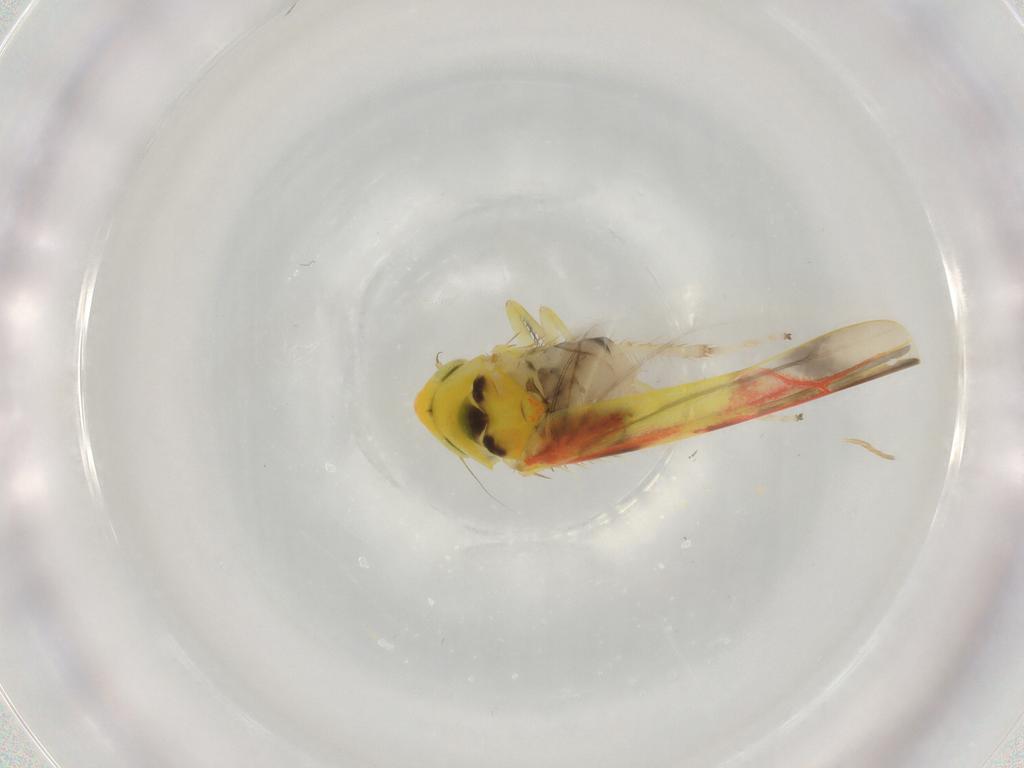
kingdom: Animalia
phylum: Arthropoda
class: Insecta
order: Hemiptera
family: Cicadellidae
